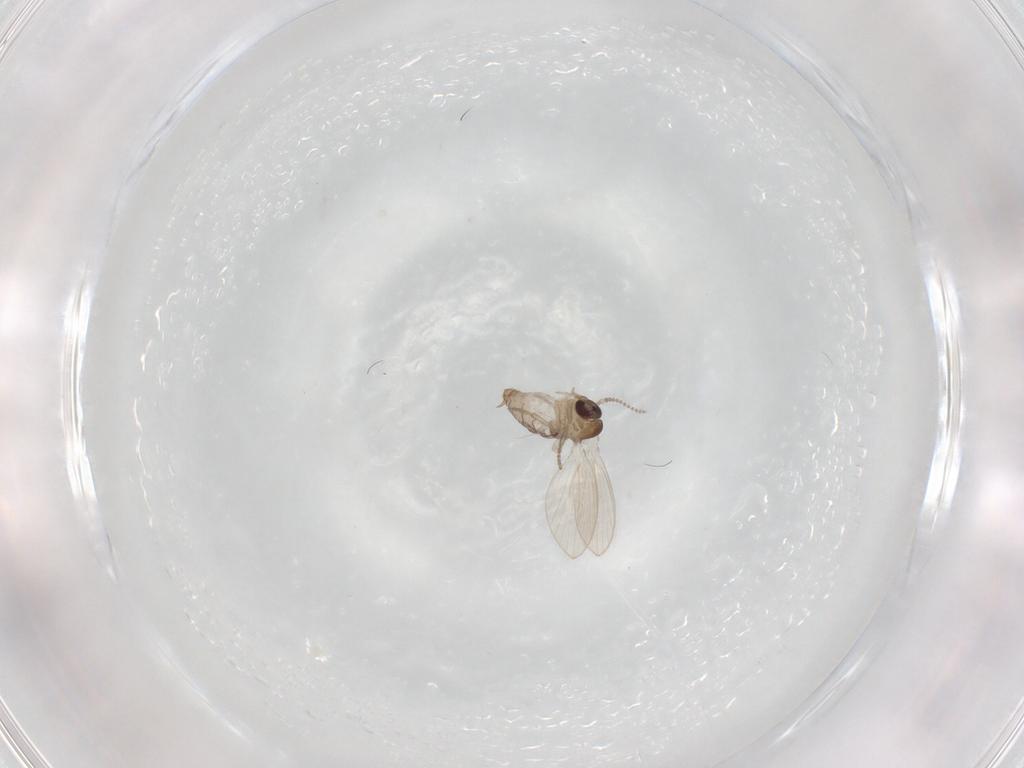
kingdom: Animalia
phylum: Arthropoda
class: Insecta
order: Diptera
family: Psychodidae
